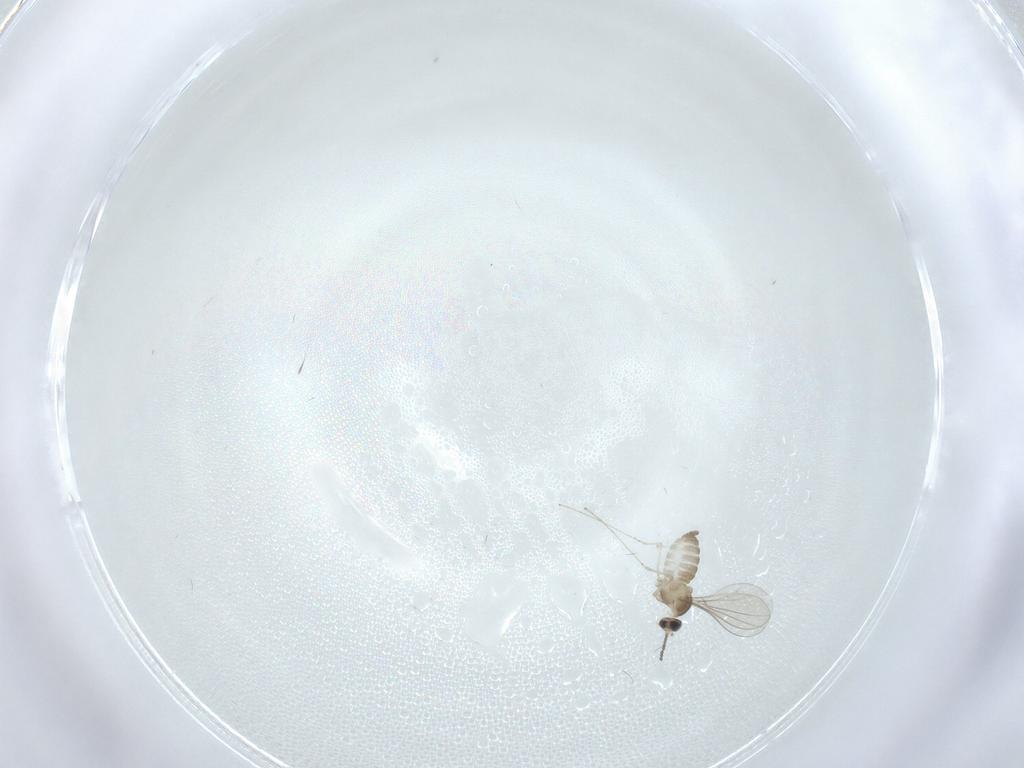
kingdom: Animalia
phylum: Arthropoda
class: Insecta
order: Diptera
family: Cecidomyiidae
